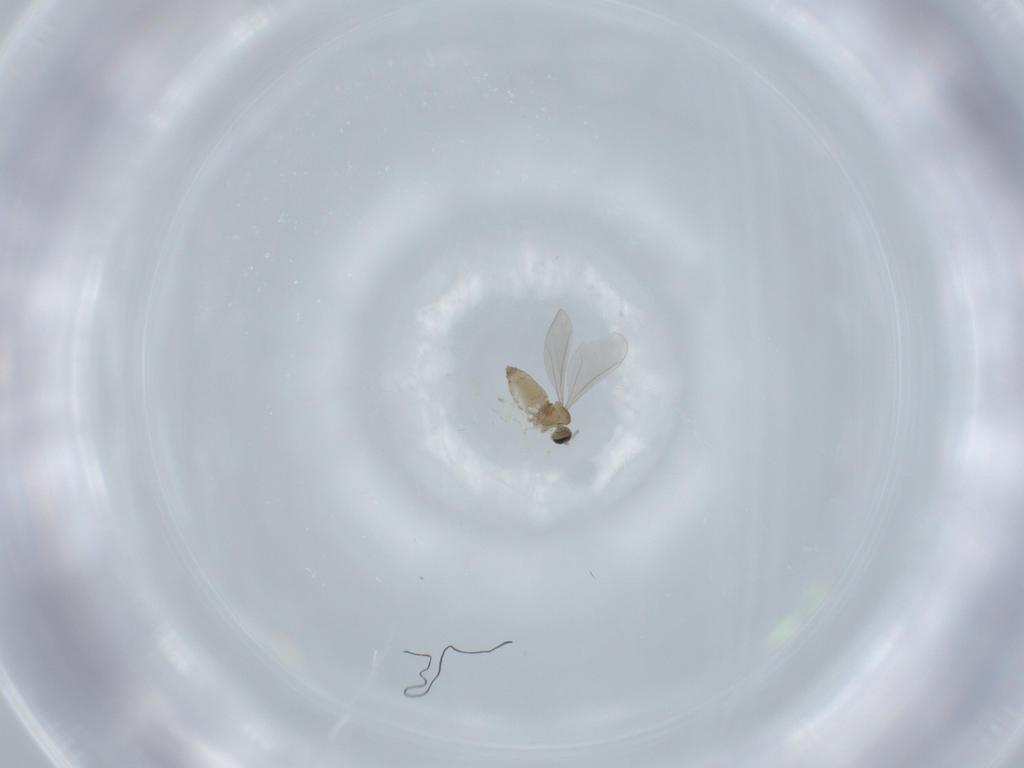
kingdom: Animalia
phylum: Arthropoda
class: Insecta
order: Diptera
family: Cecidomyiidae
